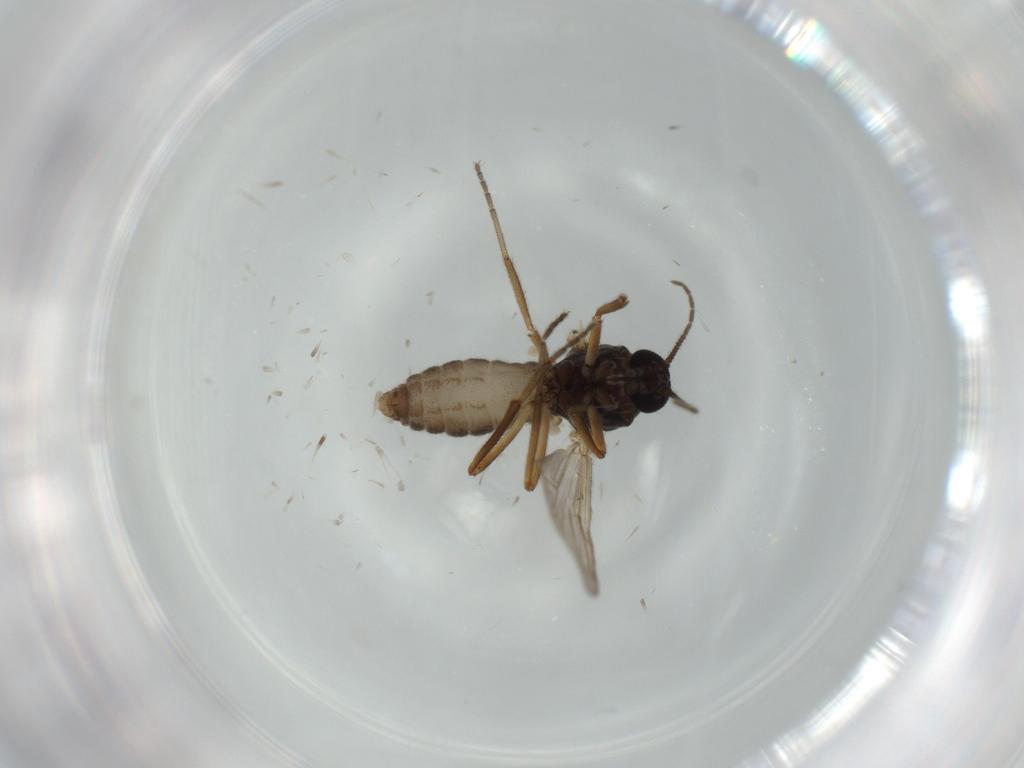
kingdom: Animalia
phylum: Arthropoda
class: Insecta
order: Diptera
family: Ceratopogonidae
